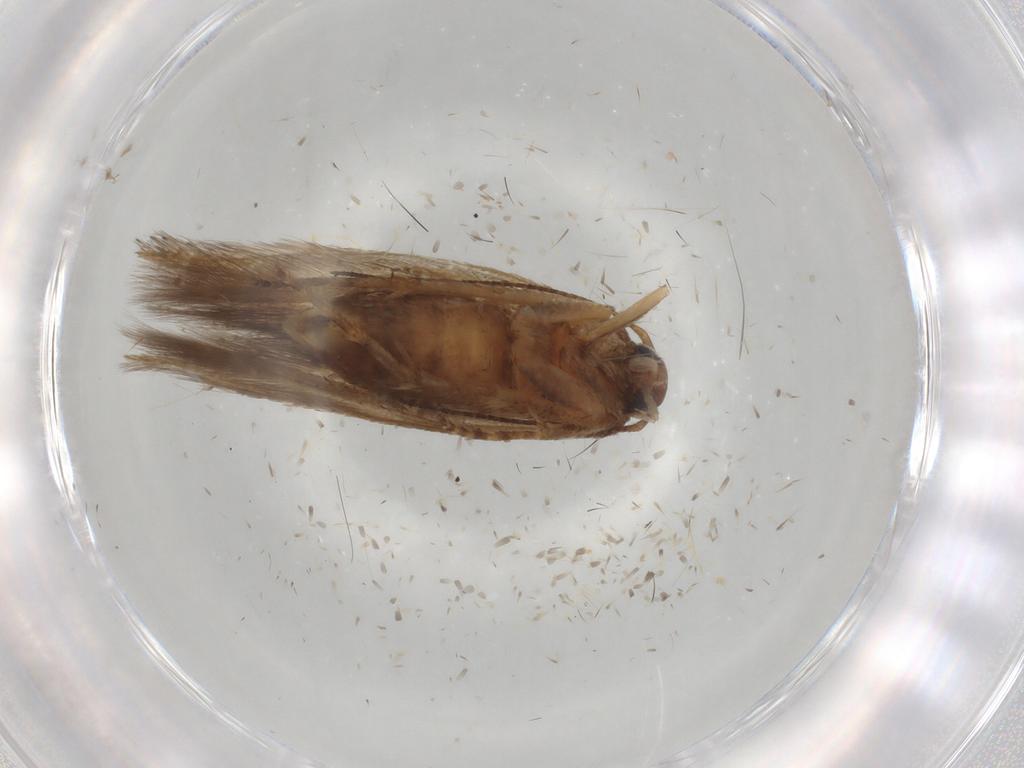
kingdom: Animalia
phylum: Arthropoda
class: Insecta
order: Lepidoptera
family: Gelechiidae
